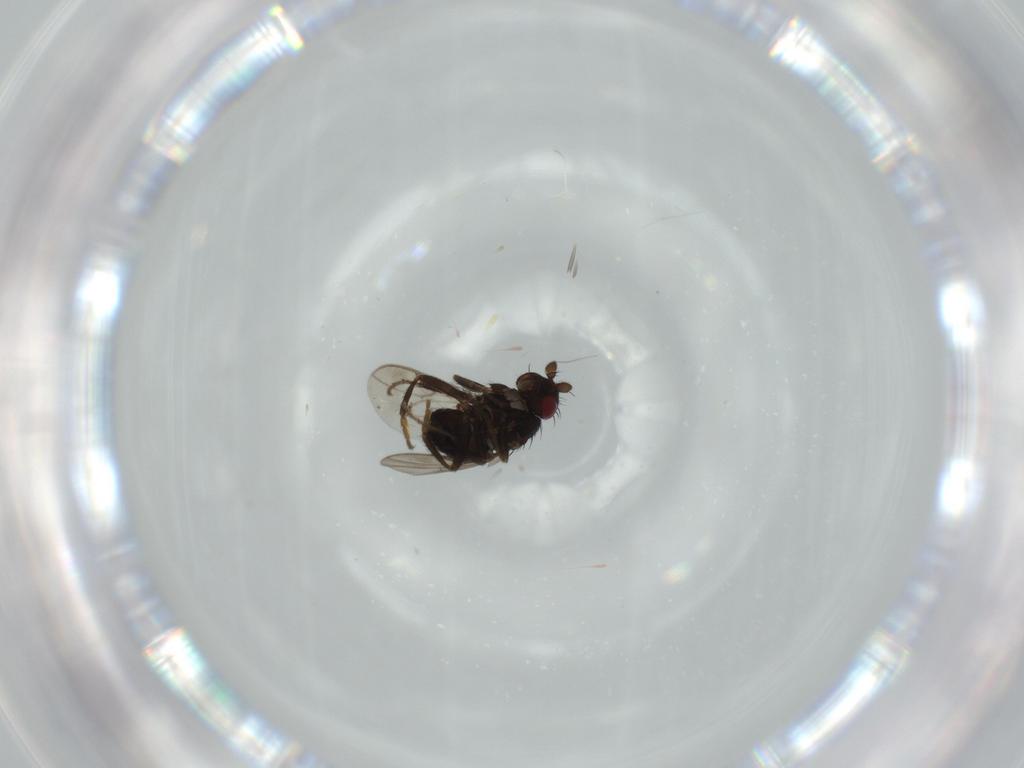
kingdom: Animalia
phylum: Arthropoda
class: Insecta
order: Diptera
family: Sphaeroceridae
